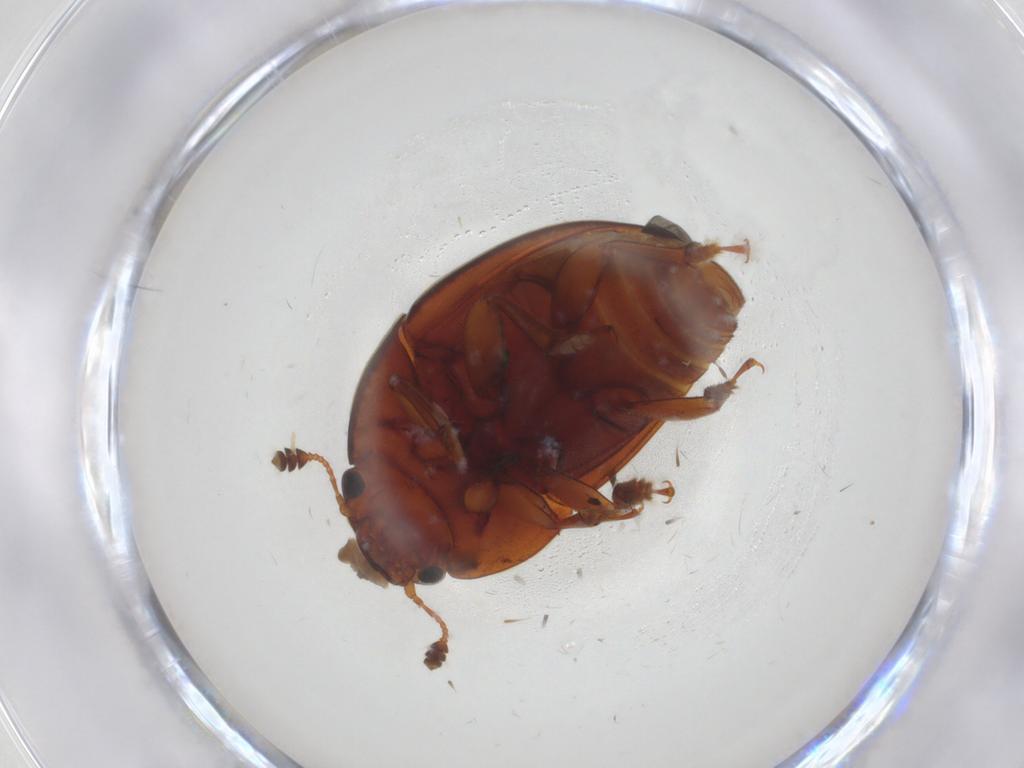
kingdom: Animalia
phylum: Arthropoda
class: Insecta
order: Coleoptera
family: Nitidulidae
